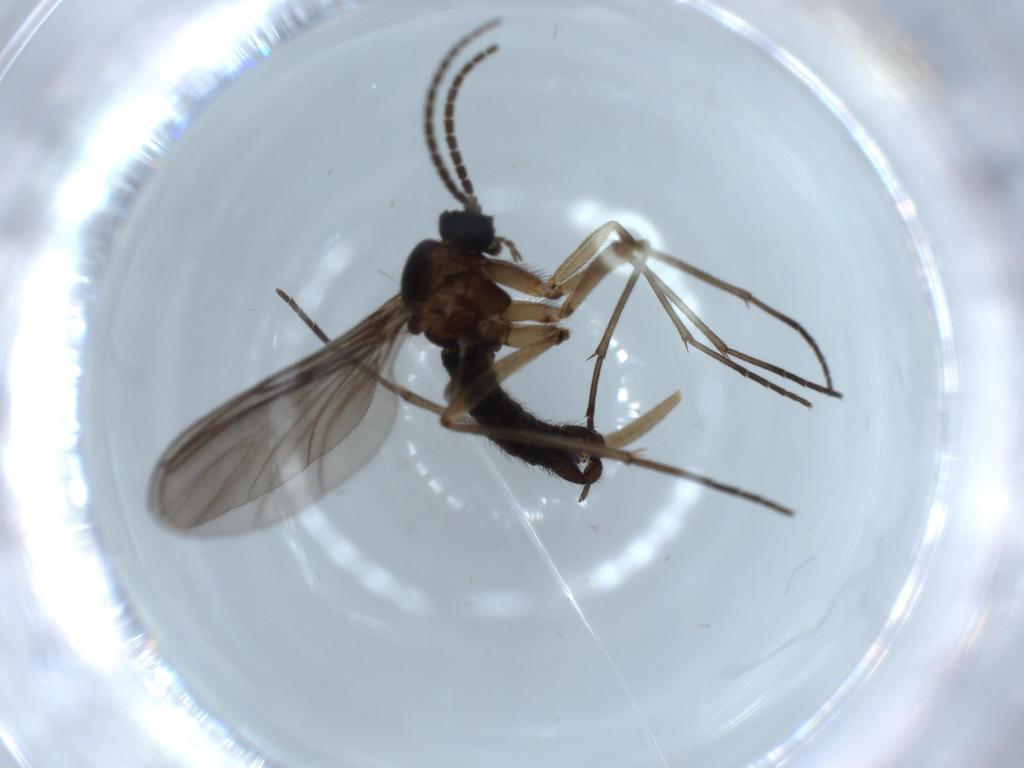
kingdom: Animalia
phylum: Arthropoda
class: Insecta
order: Diptera
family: Sciaridae
